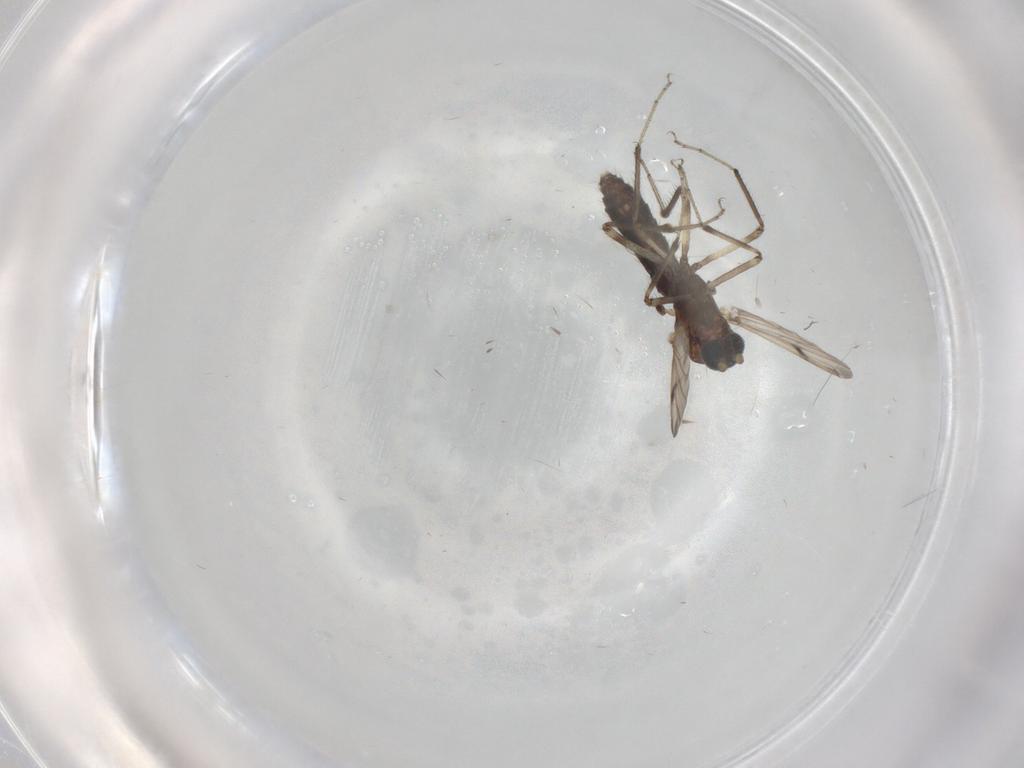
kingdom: Animalia
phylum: Arthropoda
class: Insecta
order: Diptera
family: Ceratopogonidae
